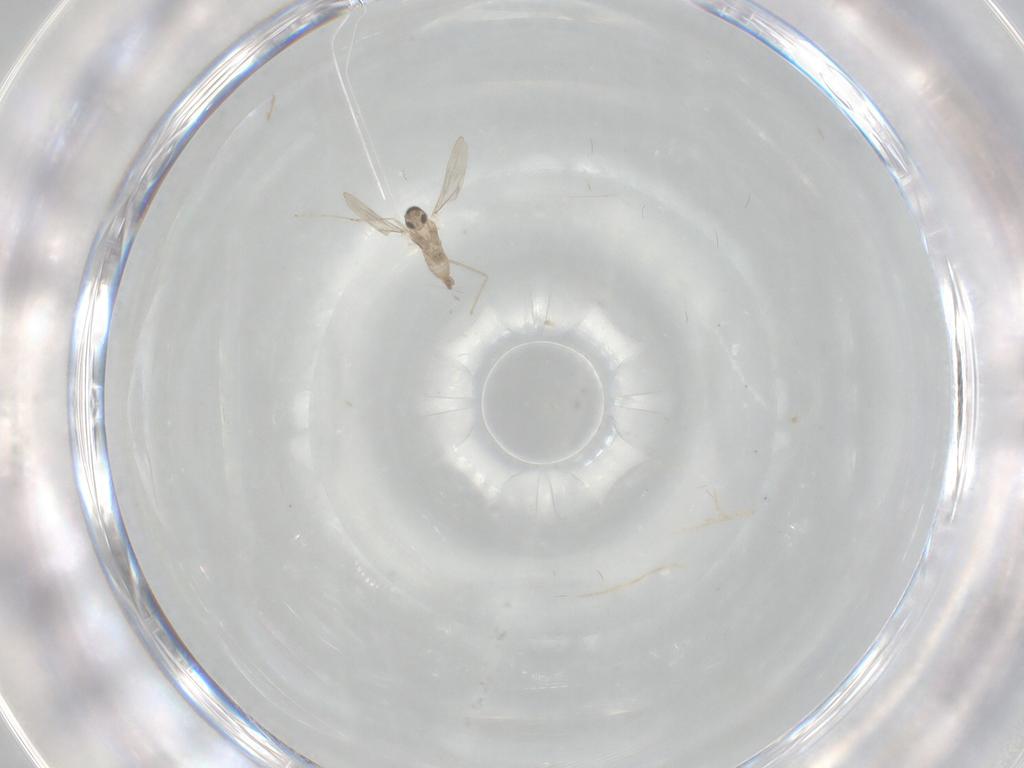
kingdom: Animalia
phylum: Arthropoda
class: Insecta
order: Diptera
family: Cecidomyiidae
